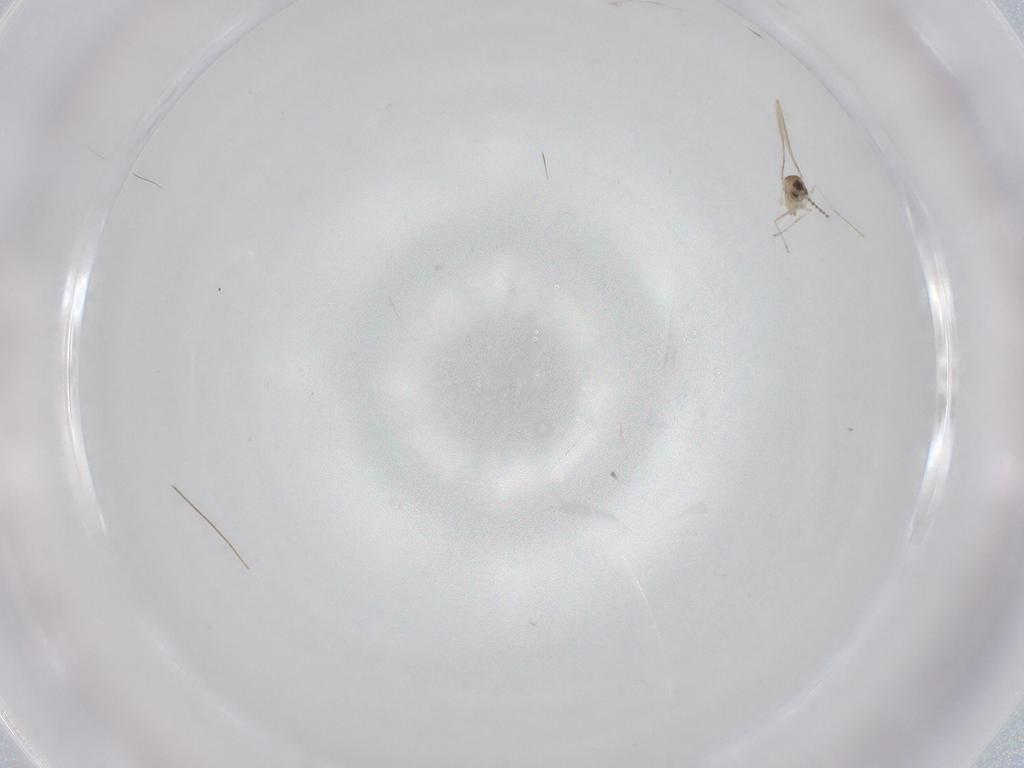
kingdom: Animalia
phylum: Arthropoda
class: Insecta
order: Diptera
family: Cecidomyiidae
